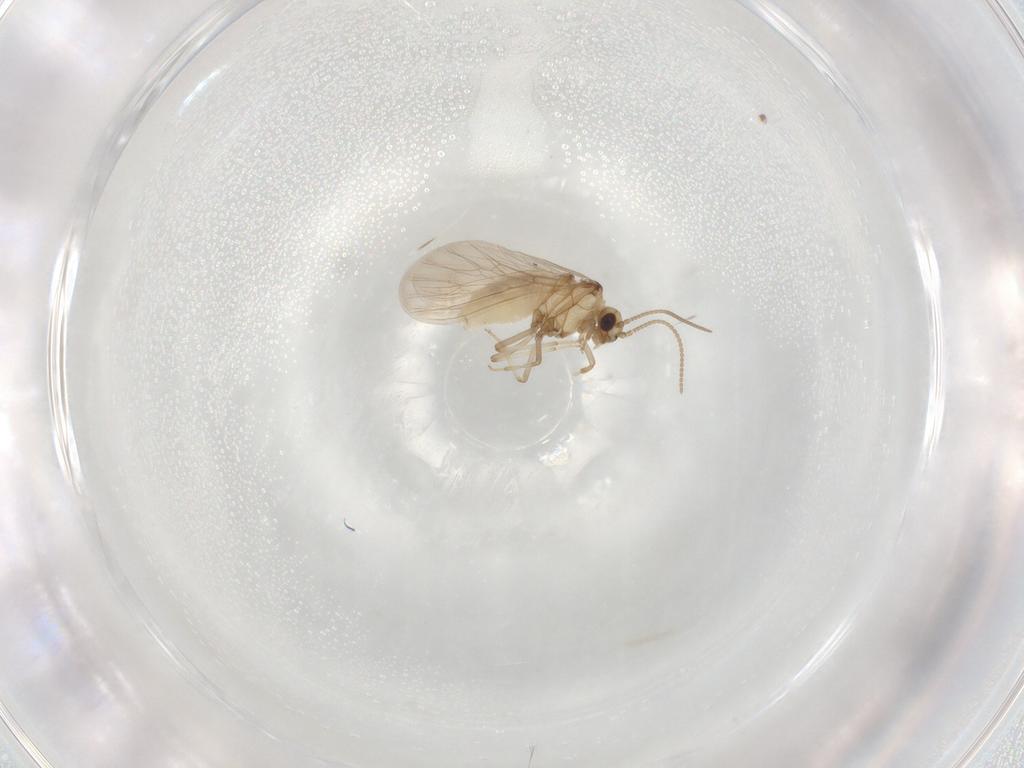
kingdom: Animalia
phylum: Arthropoda
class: Insecta
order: Neuroptera
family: Coniopterygidae
